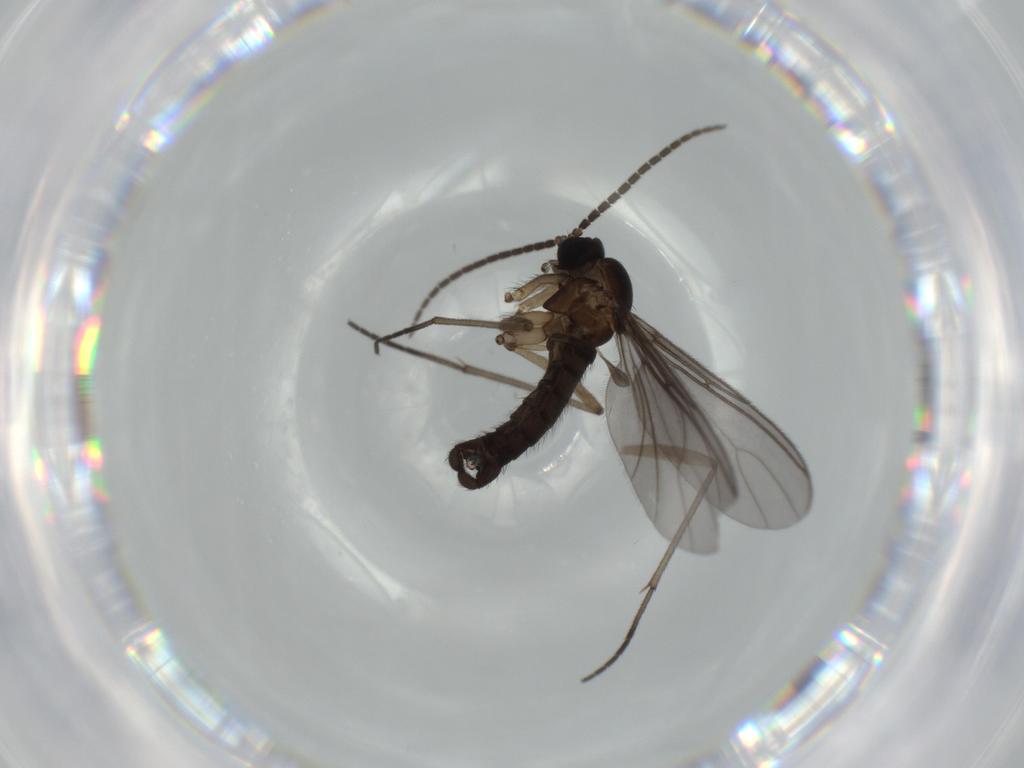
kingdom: Animalia
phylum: Arthropoda
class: Insecta
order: Diptera
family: Sciaridae
